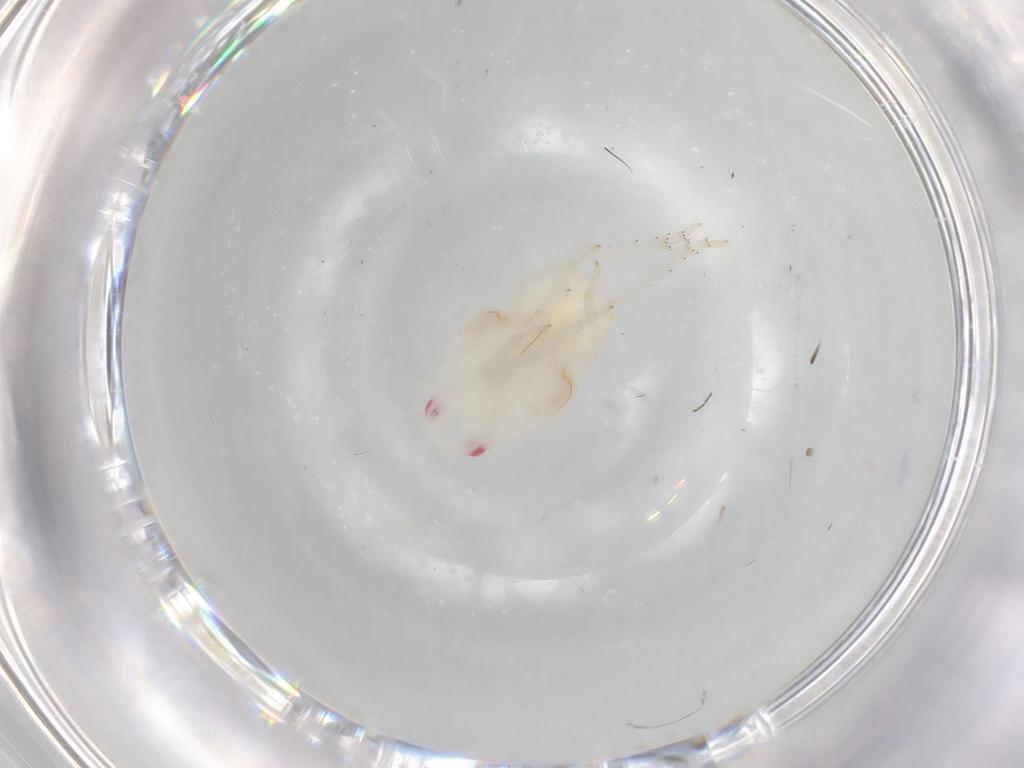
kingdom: Animalia
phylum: Arthropoda
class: Insecta
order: Hemiptera
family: Flatidae
